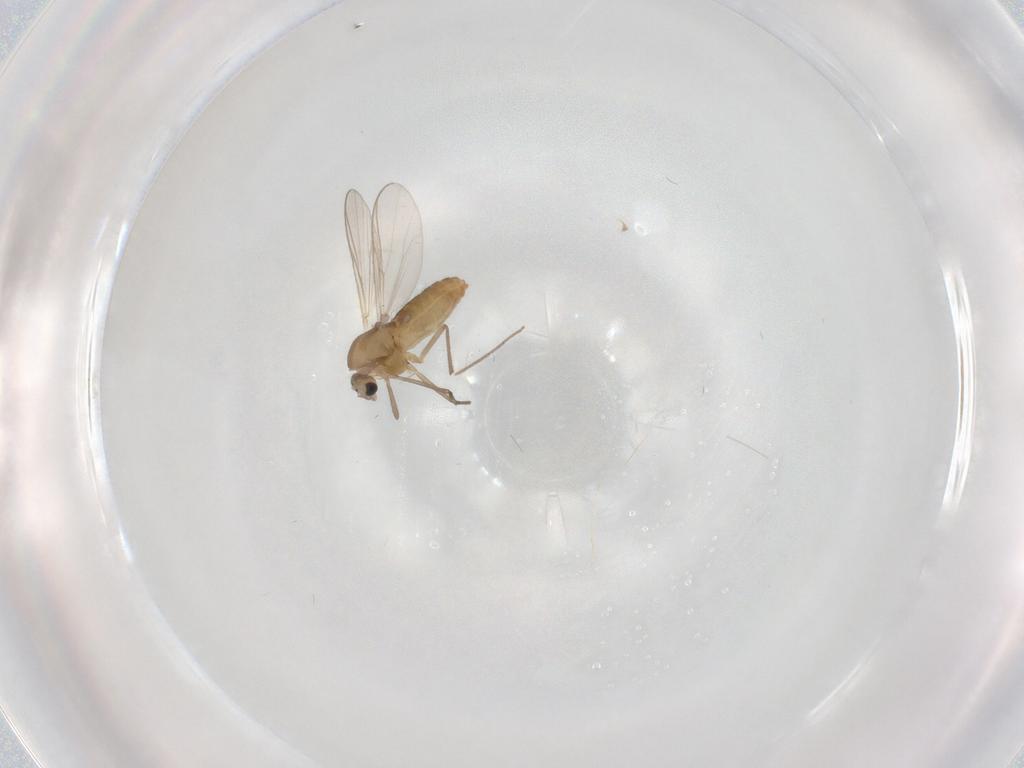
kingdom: Animalia
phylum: Arthropoda
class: Insecta
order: Diptera
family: Chironomidae
